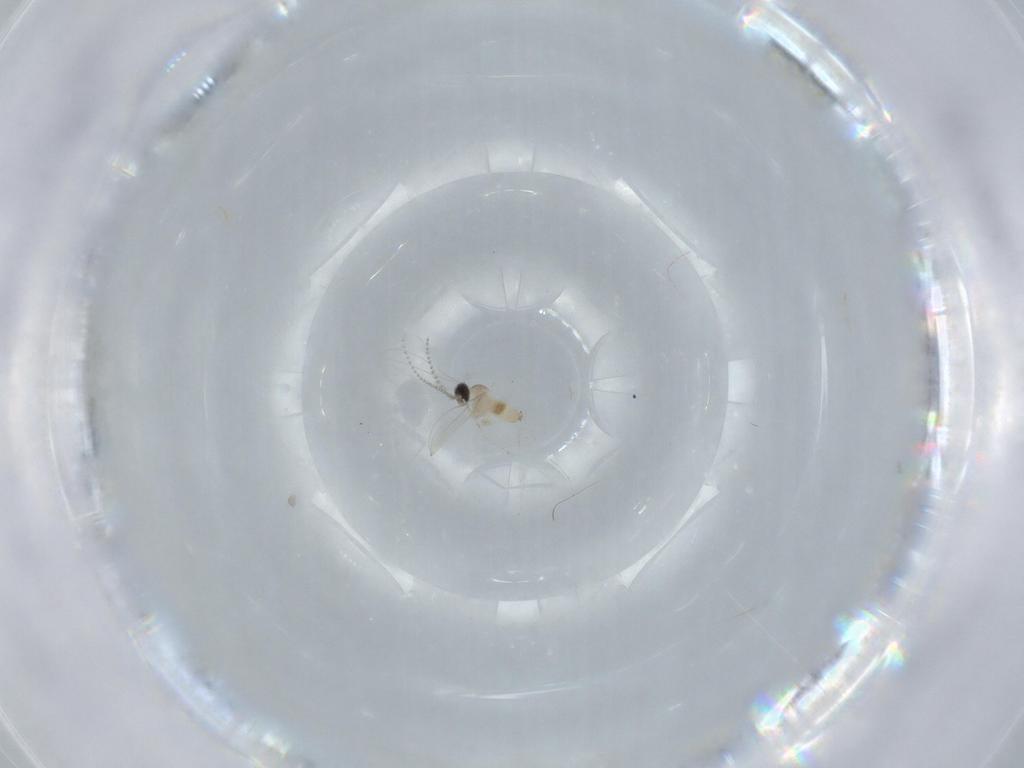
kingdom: Animalia
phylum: Arthropoda
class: Insecta
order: Diptera
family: Cecidomyiidae
